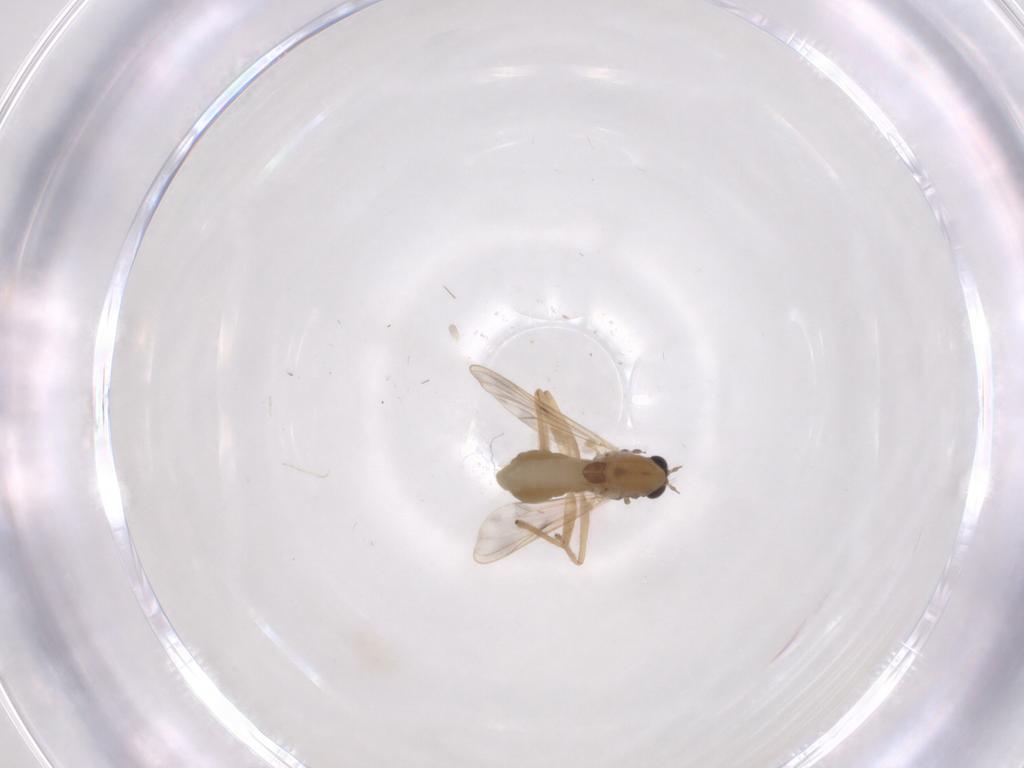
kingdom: Animalia
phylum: Arthropoda
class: Insecta
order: Diptera
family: Chironomidae
